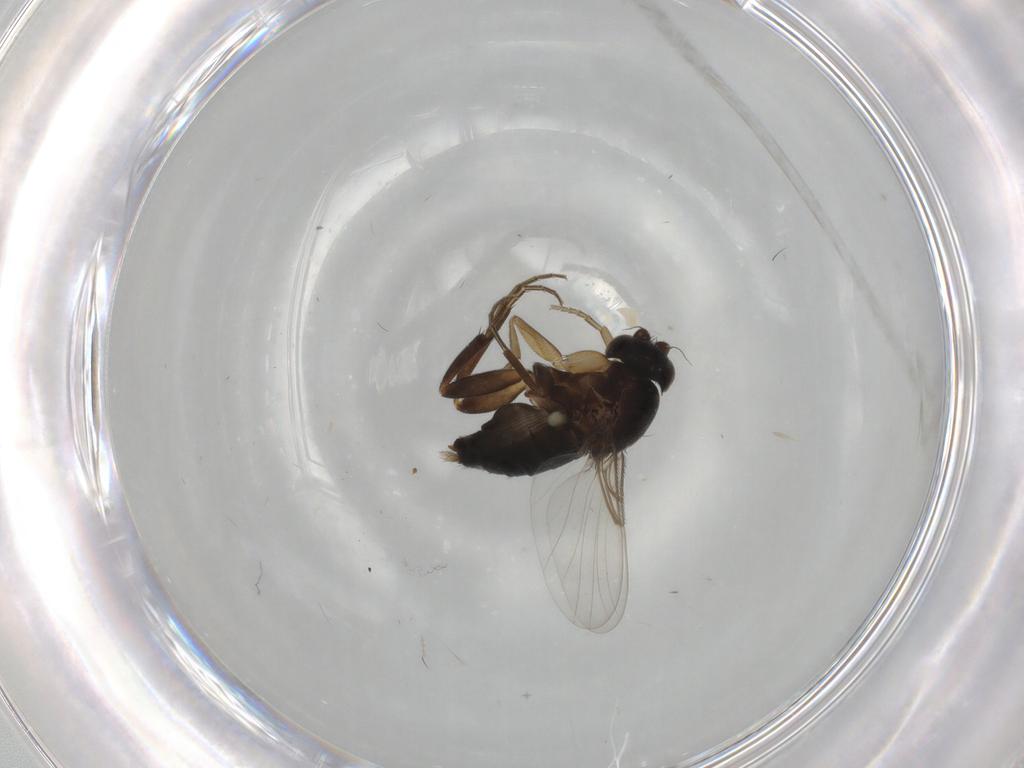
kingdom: Animalia
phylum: Arthropoda
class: Insecta
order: Diptera
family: Phoridae
